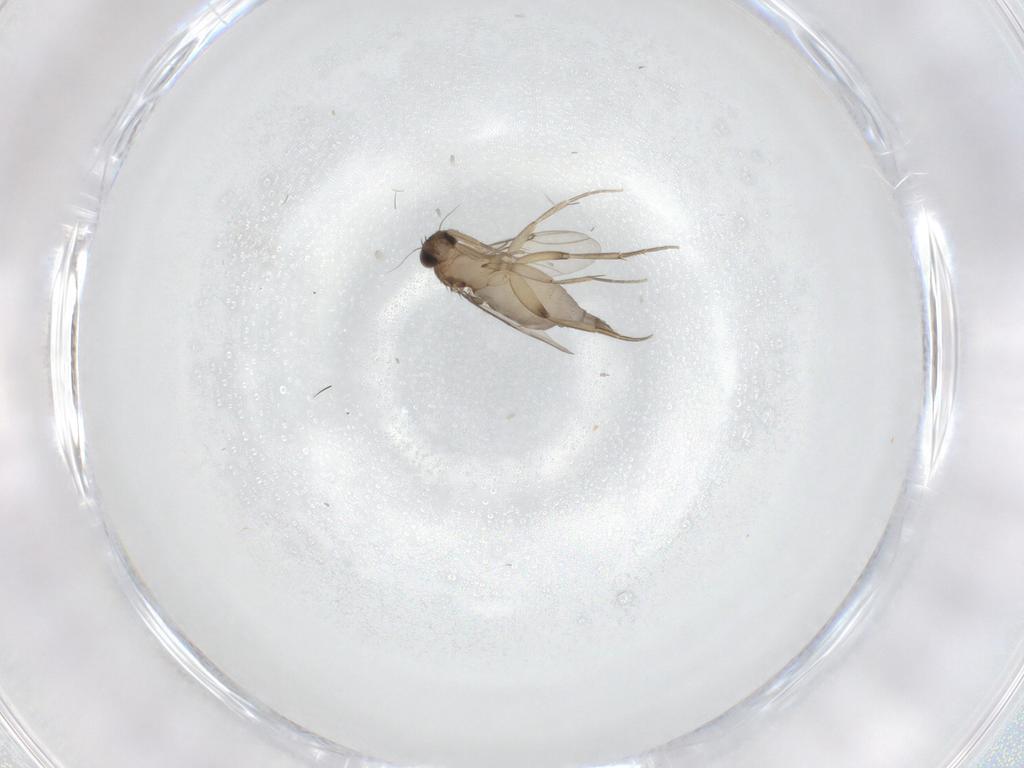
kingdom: Animalia
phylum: Arthropoda
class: Insecta
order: Diptera
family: Phoridae
